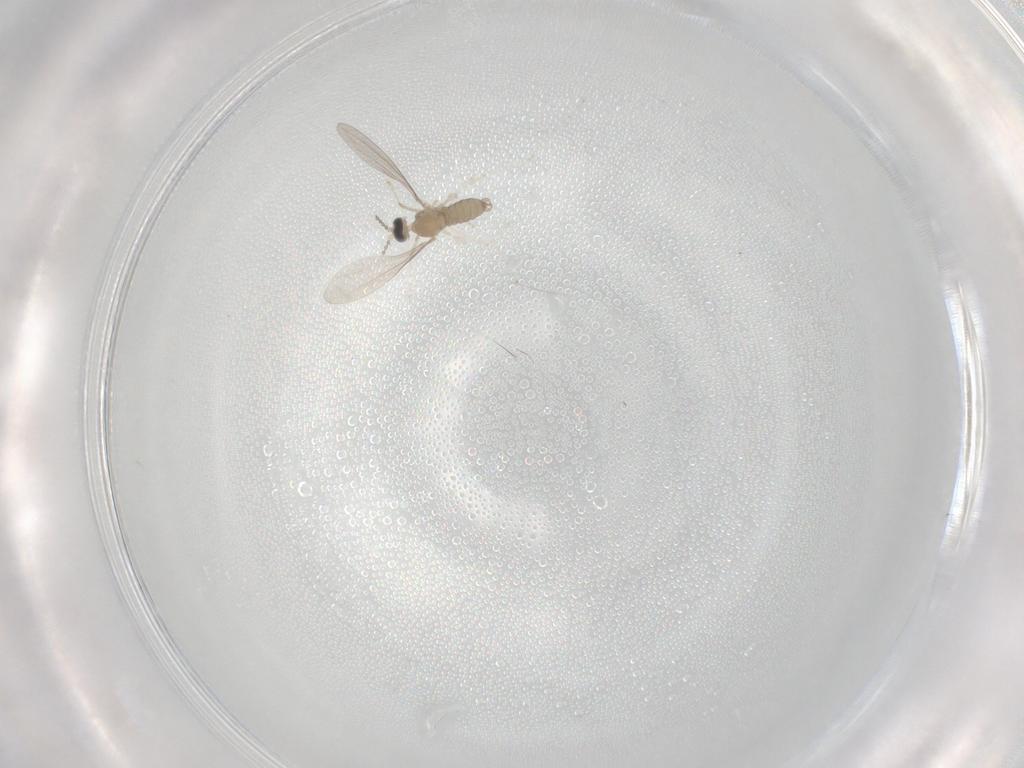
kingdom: Animalia
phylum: Arthropoda
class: Insecta
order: Diptera
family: Cecidomyiidae
